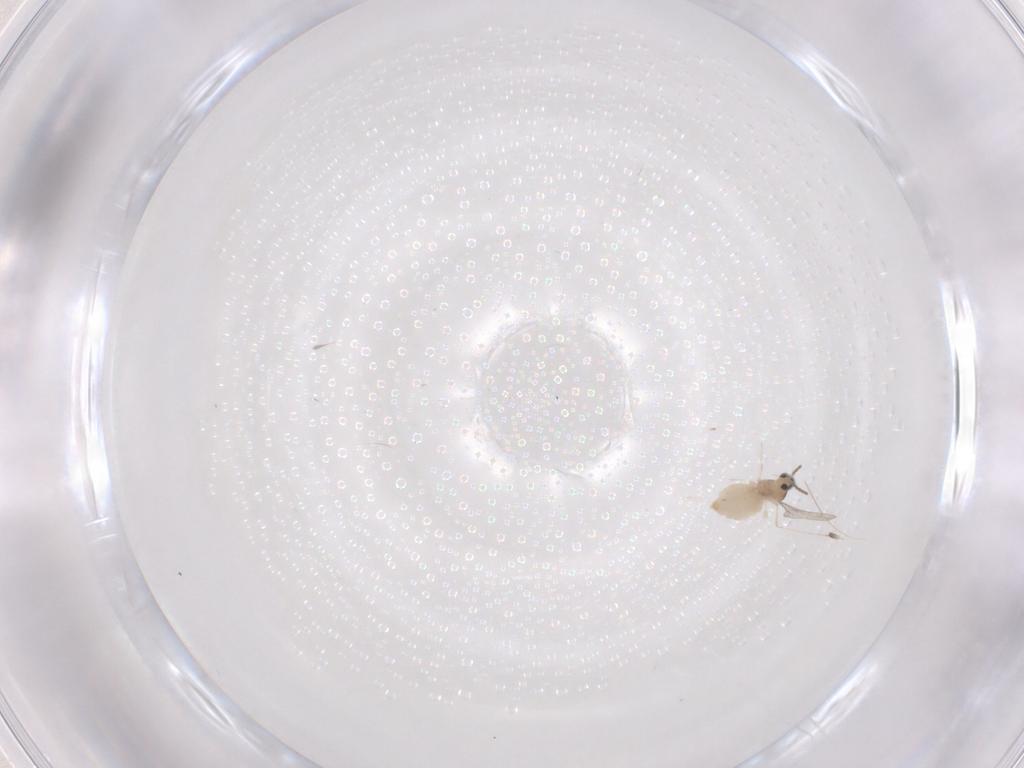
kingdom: Animalia
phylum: Arthropoda
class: Insecta
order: Diptera
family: Cecidomyiidae
